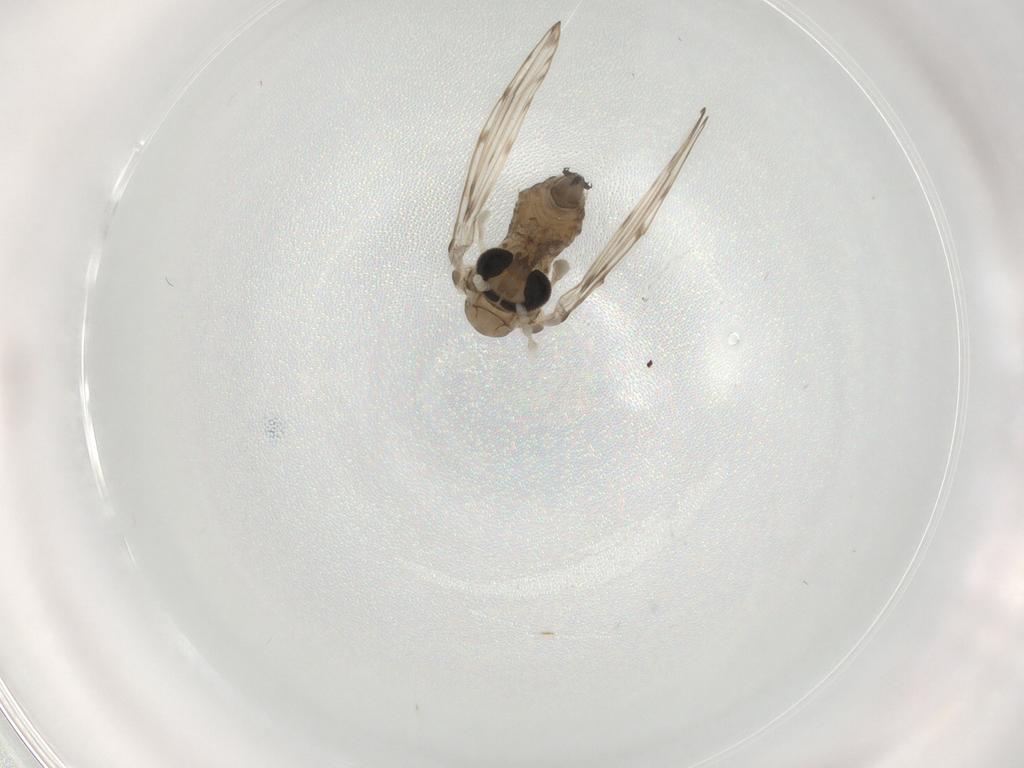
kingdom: Animalia
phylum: Arthropoda
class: Insecta
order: Diptera
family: Psychodidae
